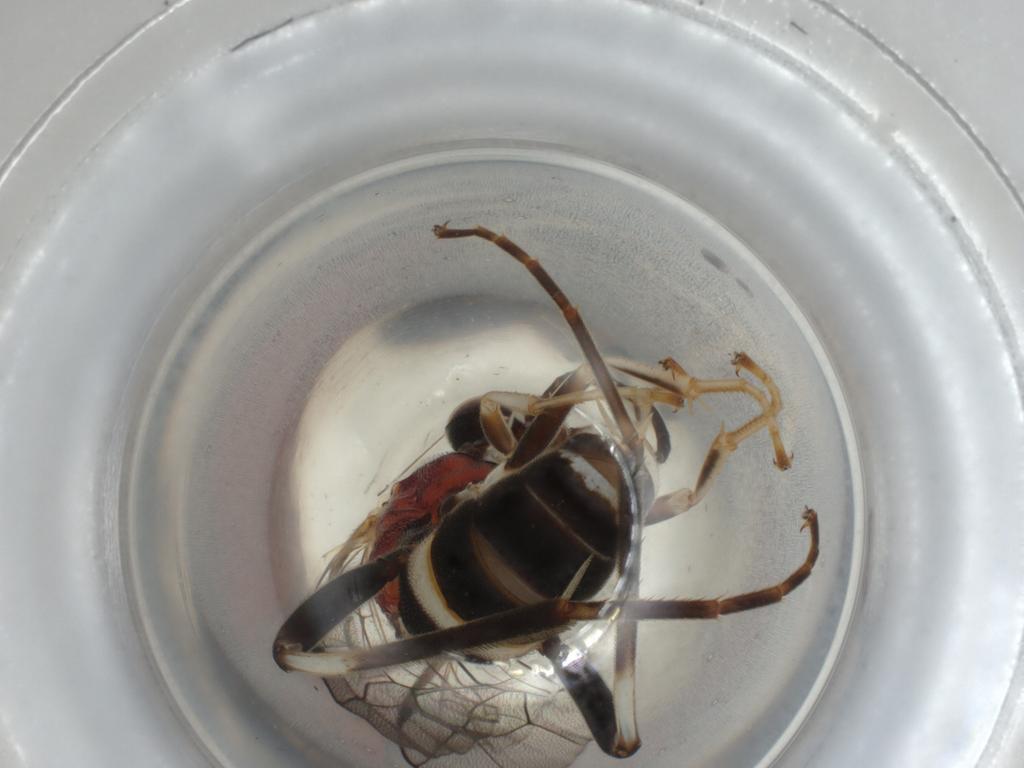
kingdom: Animalia
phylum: Arthropoda
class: Insecta
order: Hymenoptera
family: Ichneumonidae
